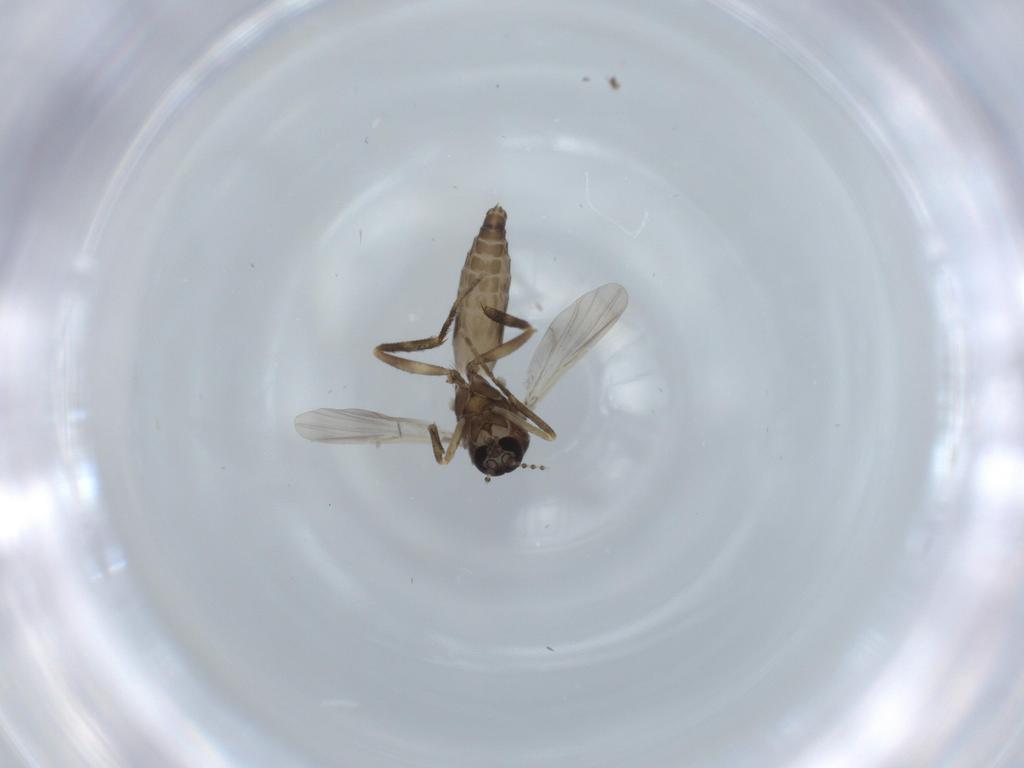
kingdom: Animalia
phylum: Arthropoda
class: Insecta
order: Diptera
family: Ceratopogonidae
